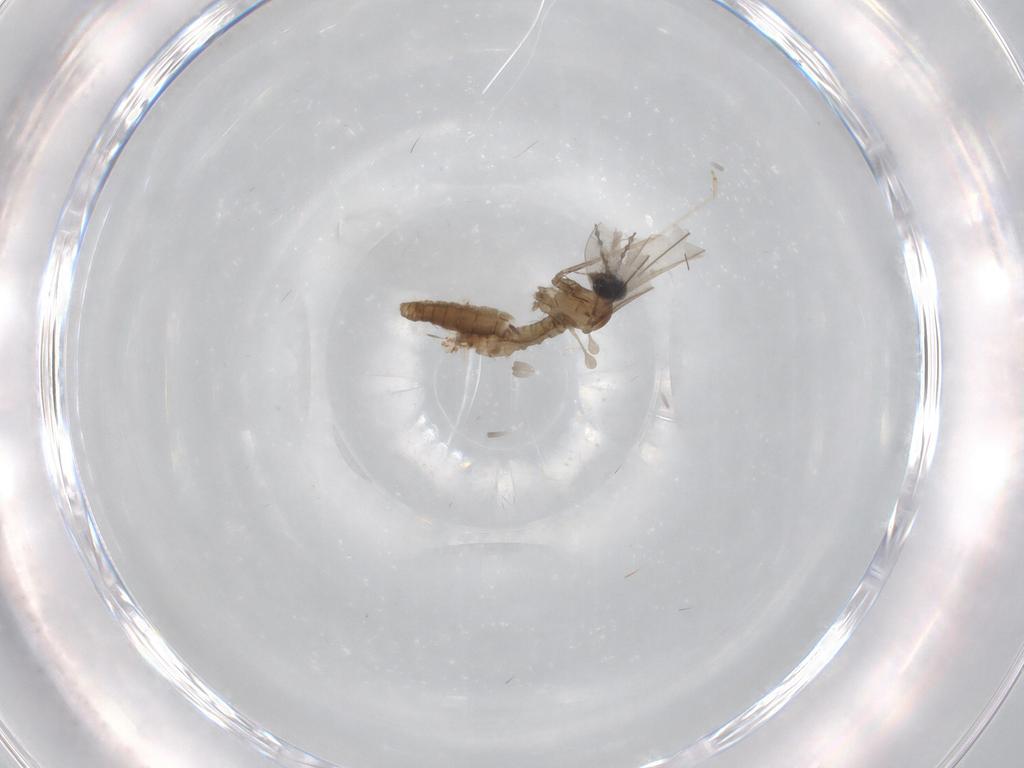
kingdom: Animalia
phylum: Arthropoda
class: Insecta
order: Diptera
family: Cecidomyiidae
